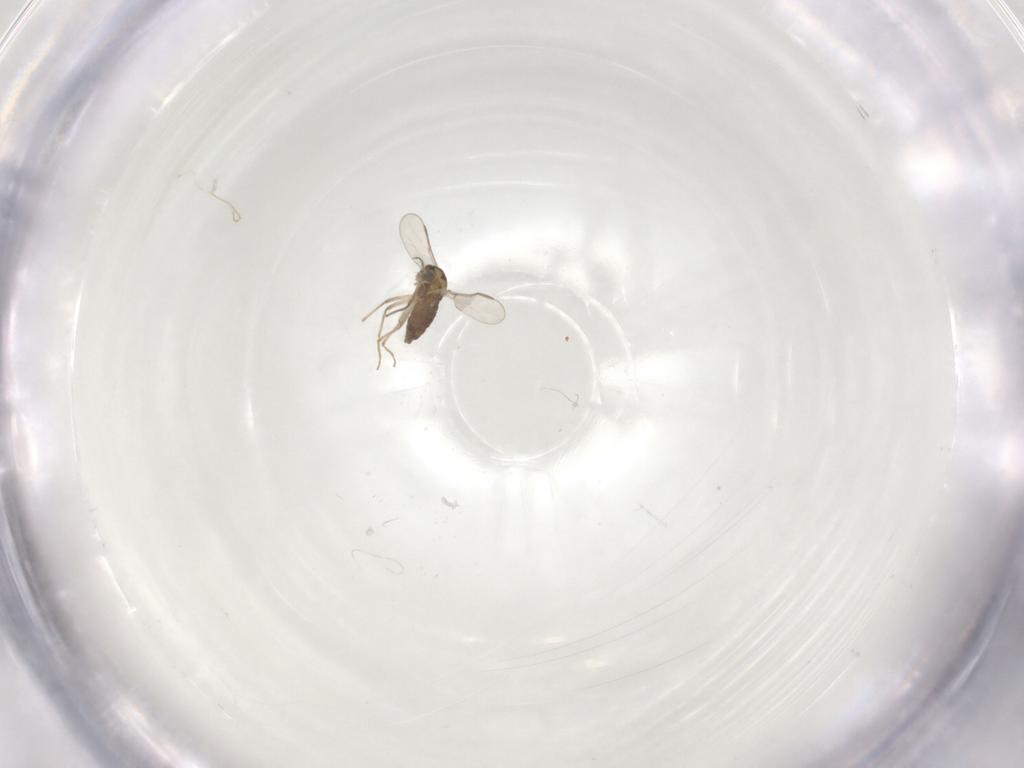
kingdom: Animalia
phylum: Arthropoda
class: Insecta
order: Diptera
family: Chironomidae
